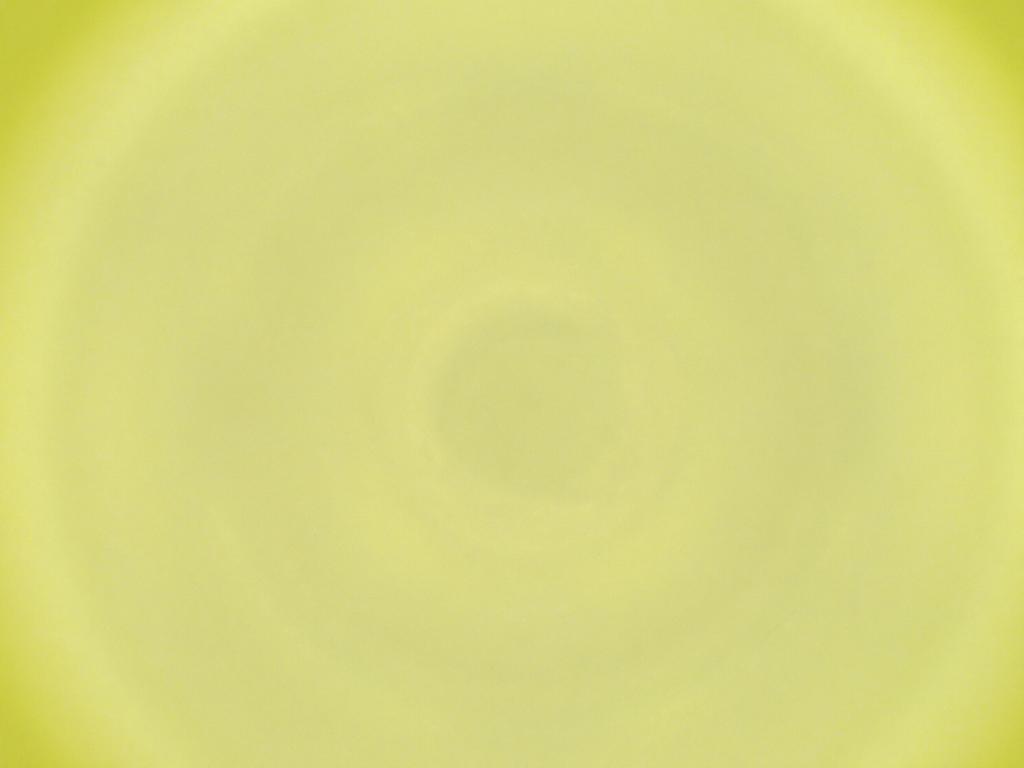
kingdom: Animalia
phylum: Arthropoda
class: Insecta
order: Diptera
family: Cecidomyiidae
